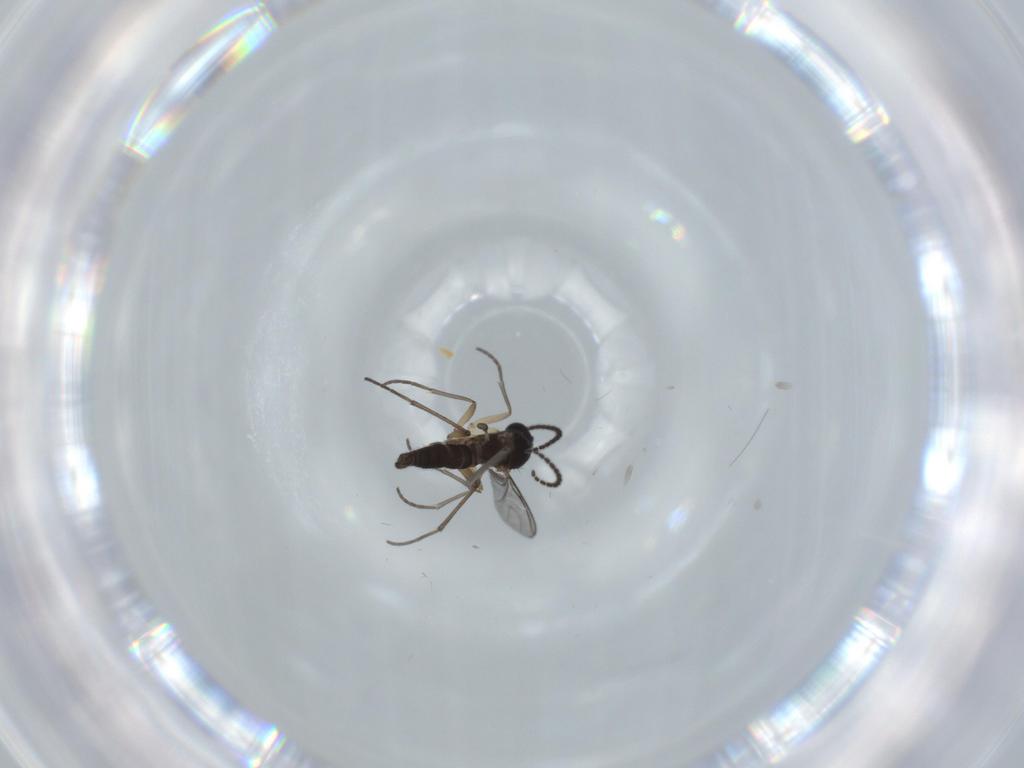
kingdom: Animalia
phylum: Arthropoda
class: Insecta
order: Diptera
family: Sciaridae
